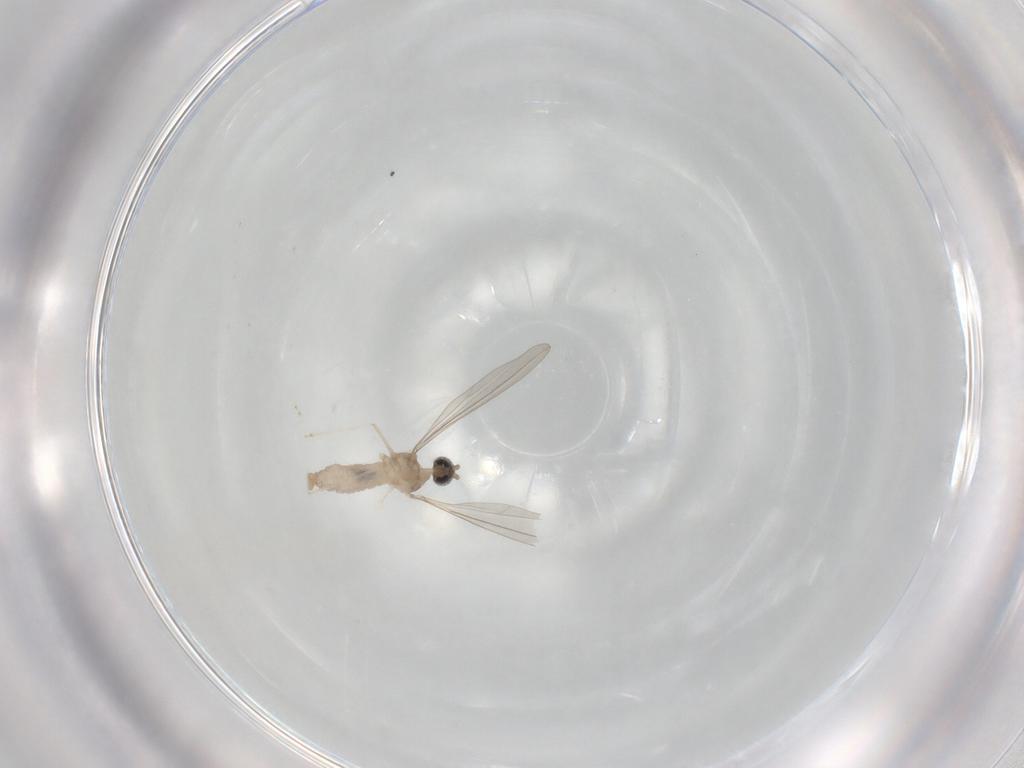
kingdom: Animalia
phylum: Arthropoda
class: Insecta
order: Diptera
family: Cecidomyiidae
